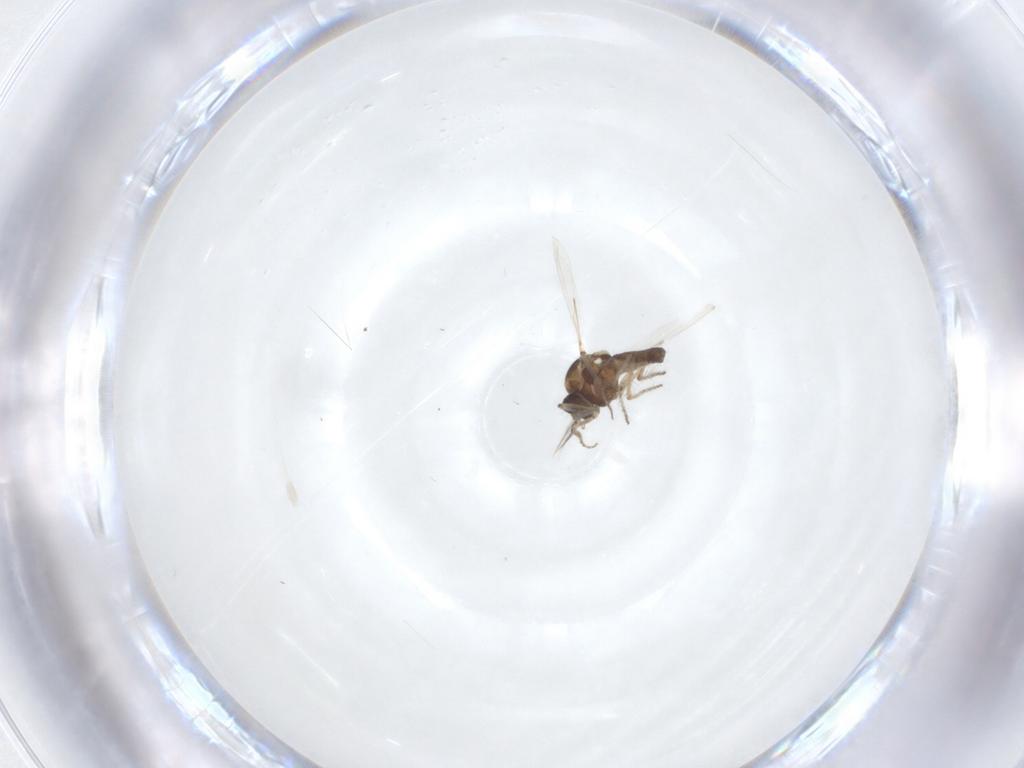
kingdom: Animalia
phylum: Arthropoda
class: Insecta
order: Diptera
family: Ceratopogonidae
